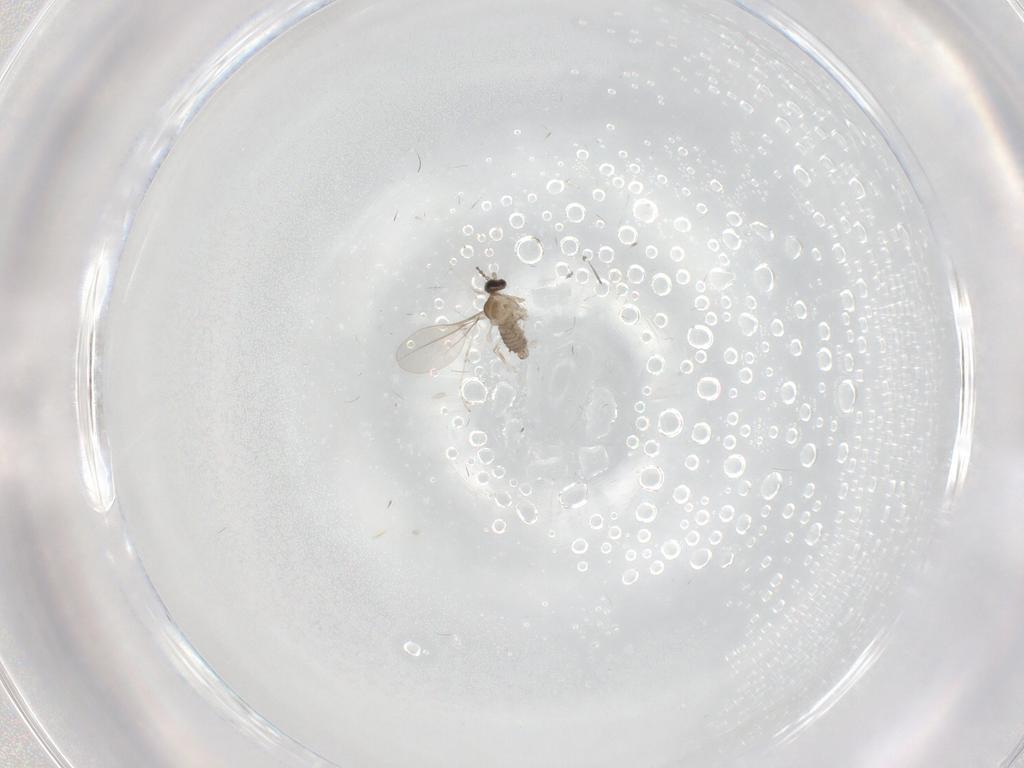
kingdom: Animalia
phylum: Arthropoda
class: Insecta
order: Diptera
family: Cecidomyiidae
